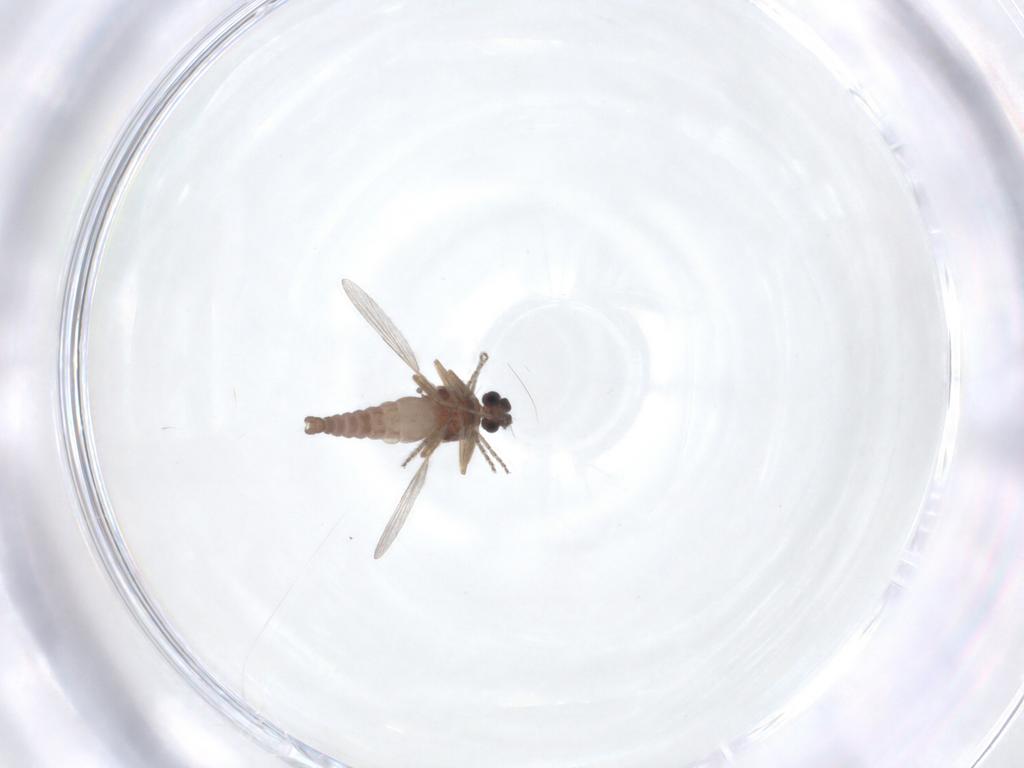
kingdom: Animalia
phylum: Arthropoda
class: Insecta
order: Diptera
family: Ceratopogonidae
